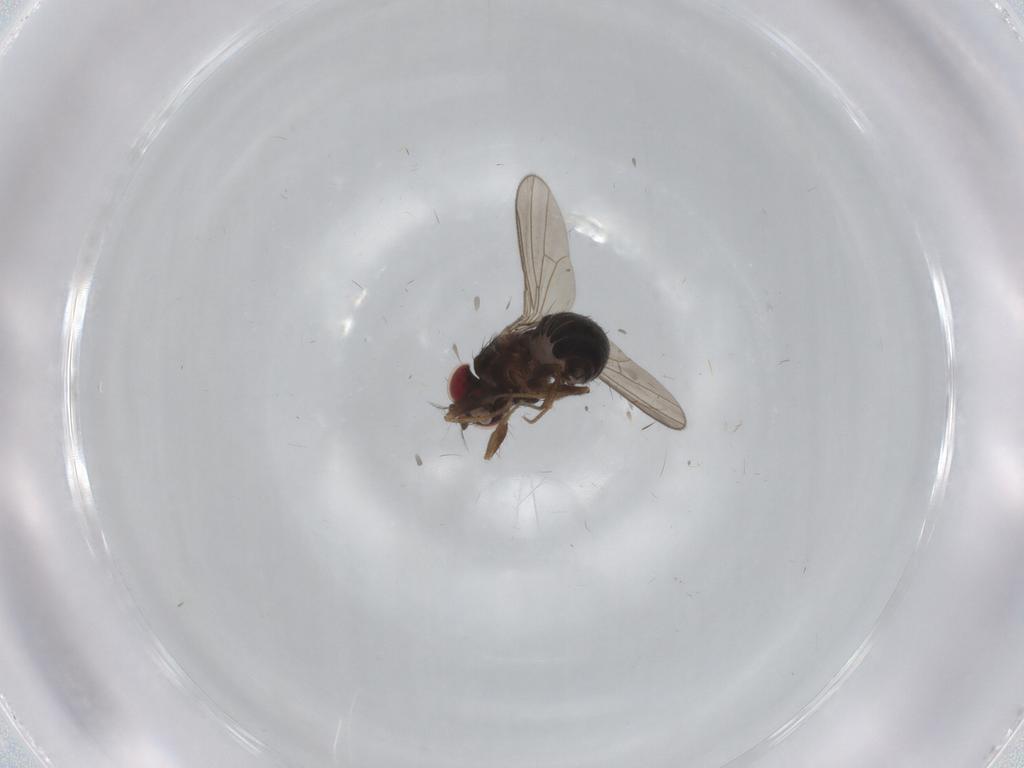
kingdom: Animalia
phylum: Arthropoda
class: Insecta
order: Diptera
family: Drosophilidae
